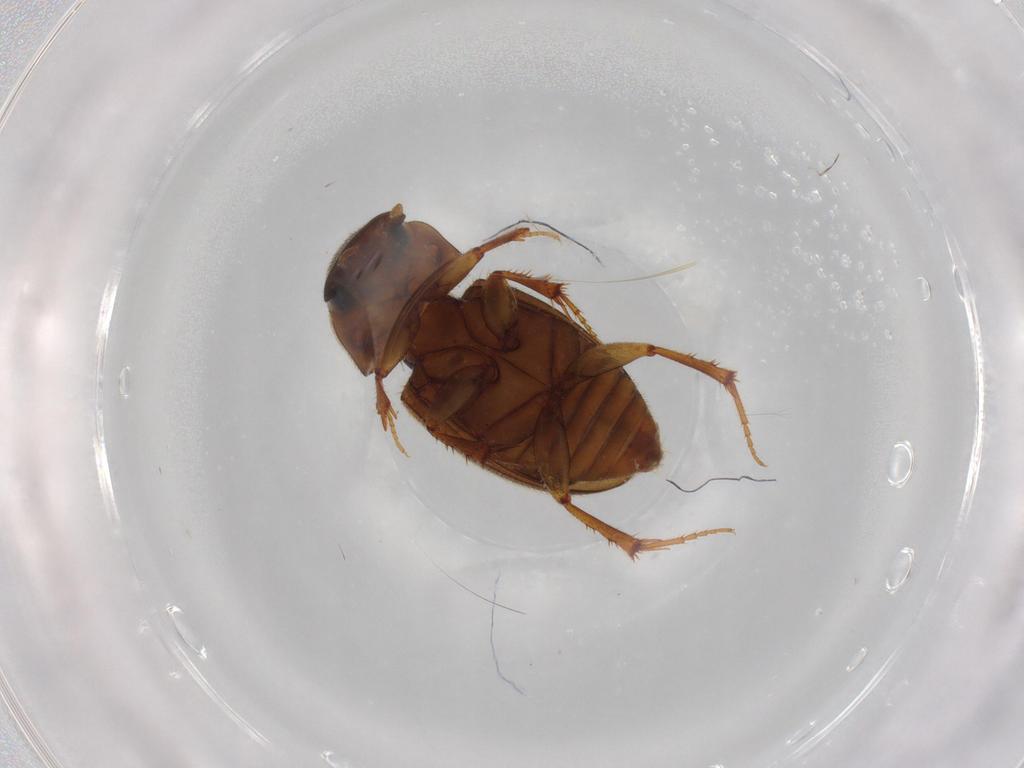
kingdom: Animalia
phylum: Arthropoda
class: Insecta
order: Coleoptera
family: Scarabaeidae
